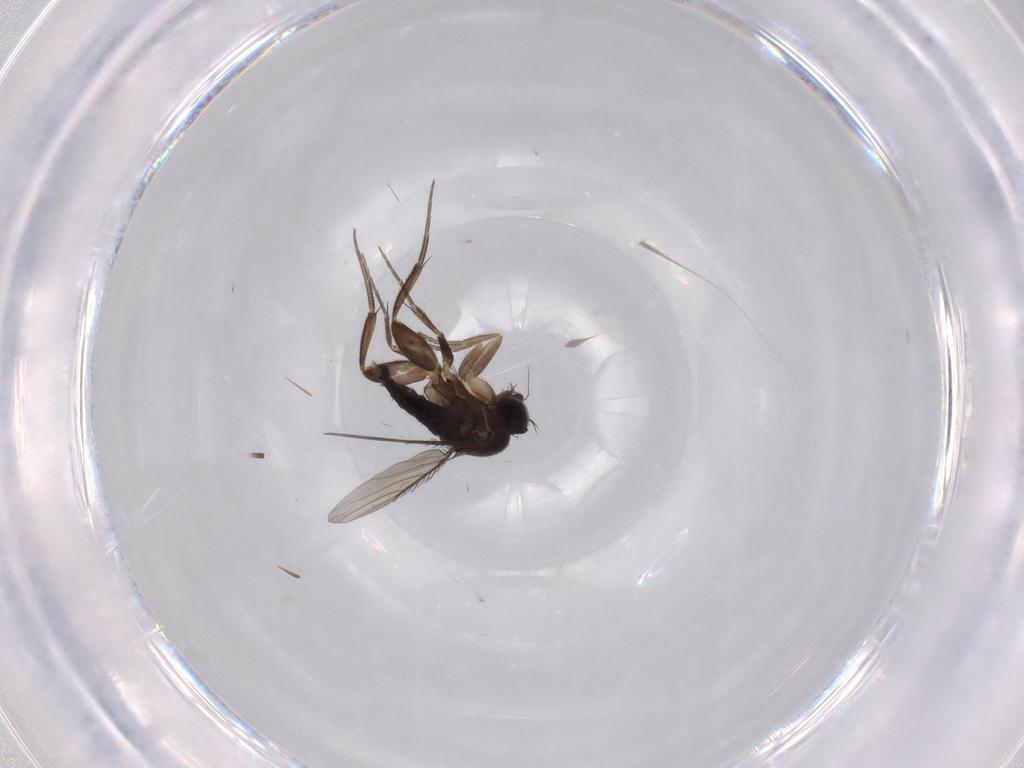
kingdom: Animalia
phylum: Arthropoda
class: Insecta
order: Diptera
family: Phoridae
